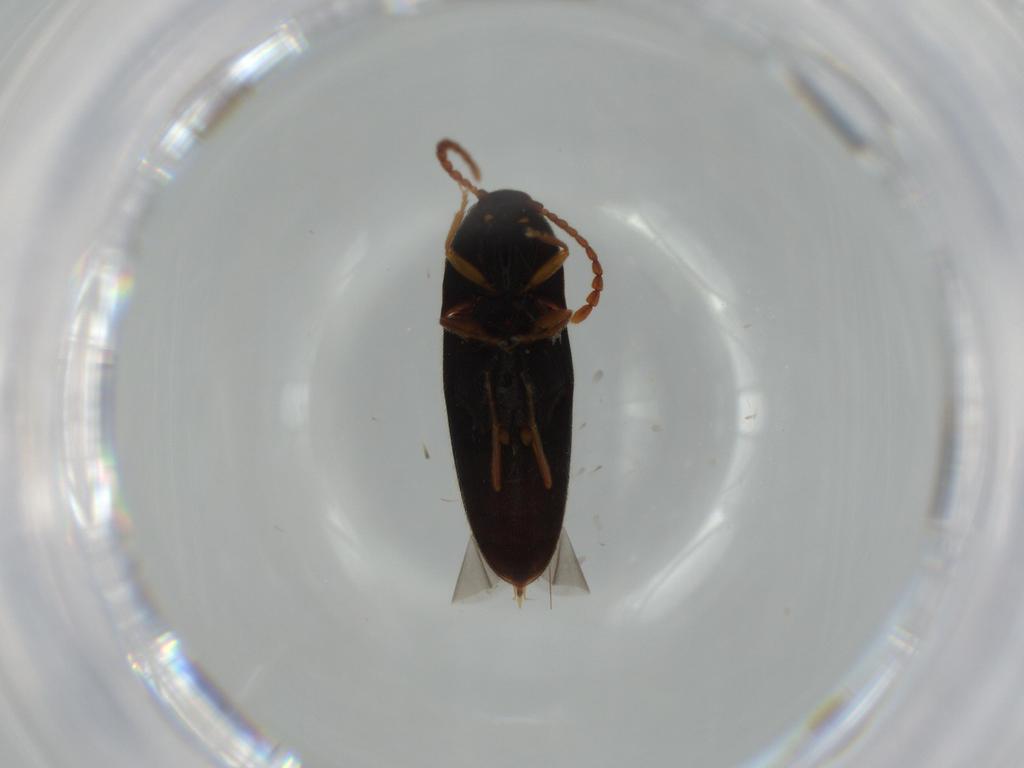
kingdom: Animalia
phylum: Arthropoda
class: Insecta
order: Coleoptera
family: Elateridae
